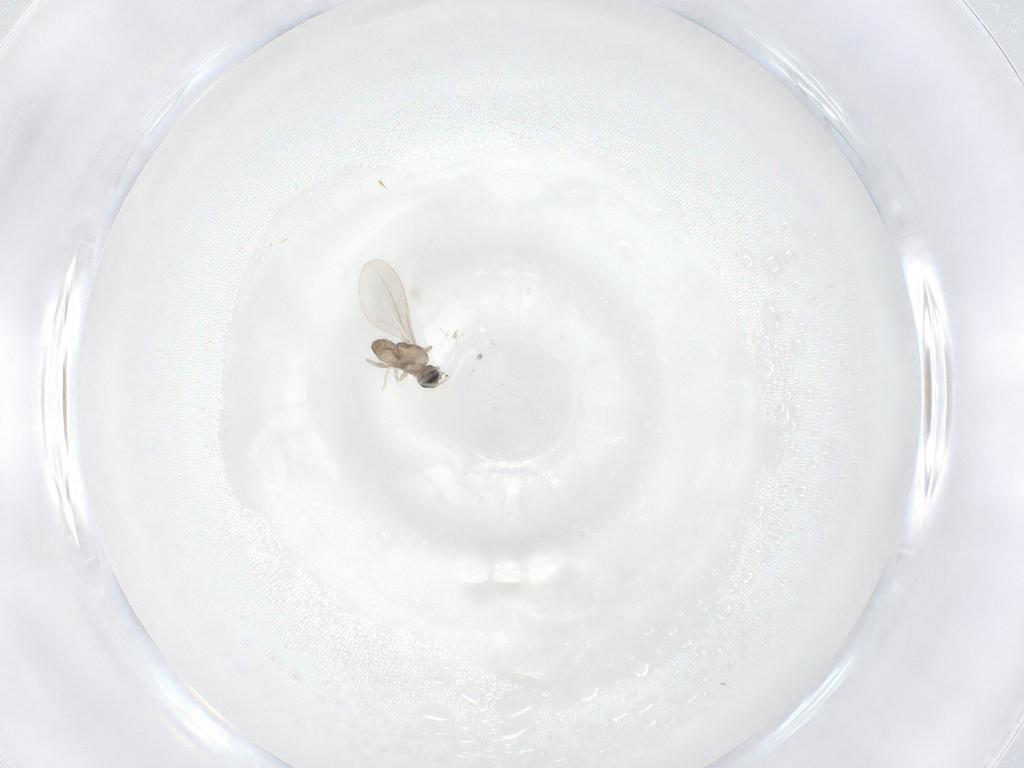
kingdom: Animalia
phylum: Arthropoda
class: Insecta
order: Diptera
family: Cecidomyiidae
